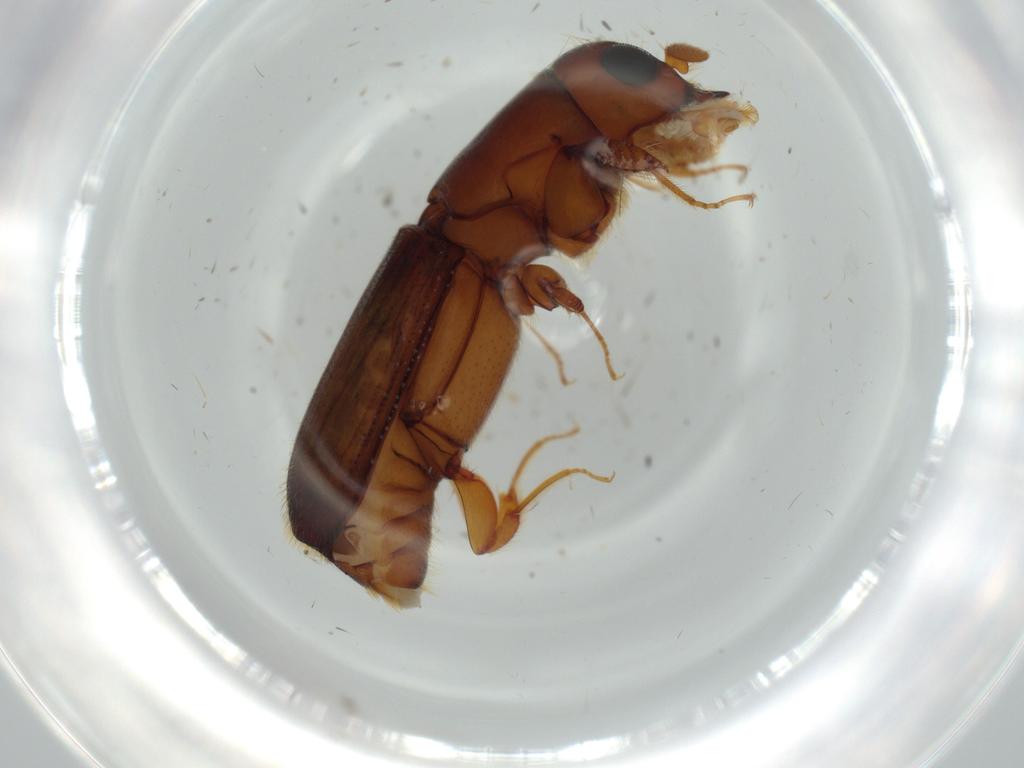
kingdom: Animalia
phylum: Arthropoda
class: Insecta
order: Coleoptera
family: Curculionidae
